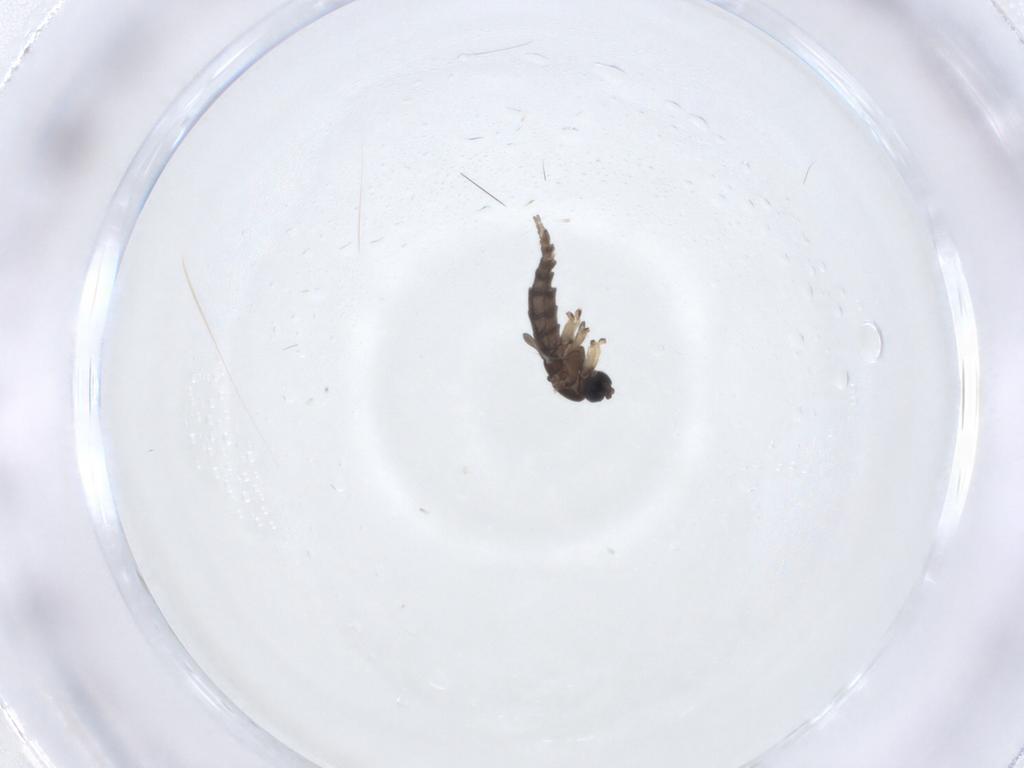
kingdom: Animalia
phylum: Arthropoda
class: Insecta
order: Diptera
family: Sciaridae
